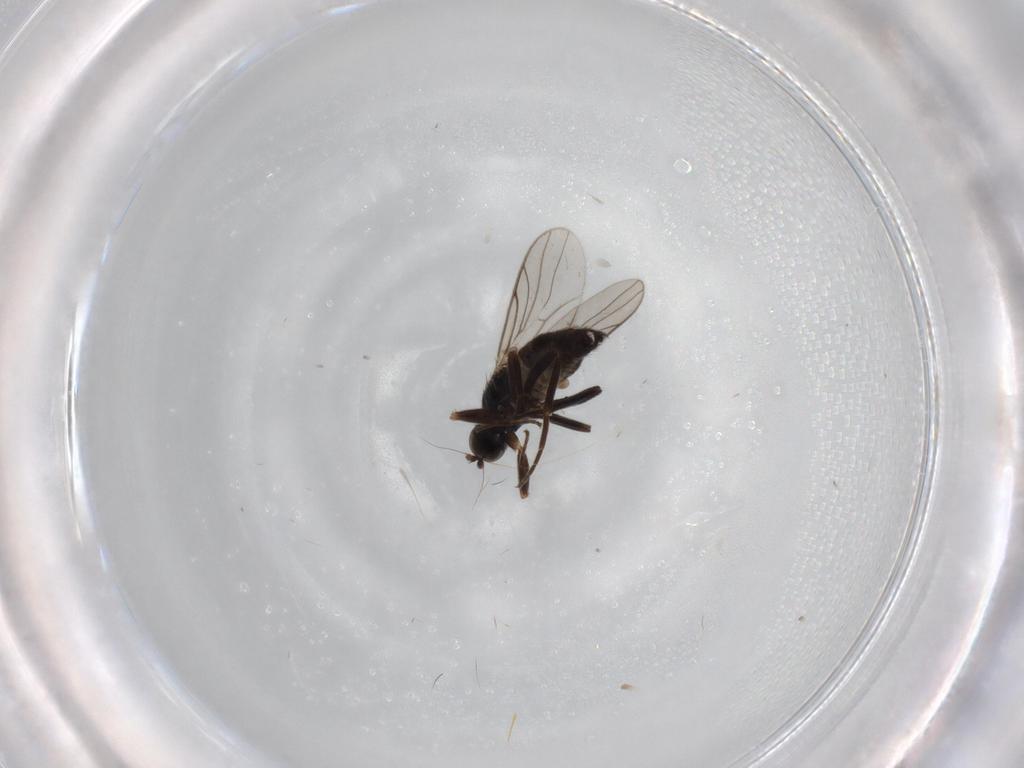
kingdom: Animalia
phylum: Arthropoda
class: Insecta
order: Diptera
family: Hybotidae
